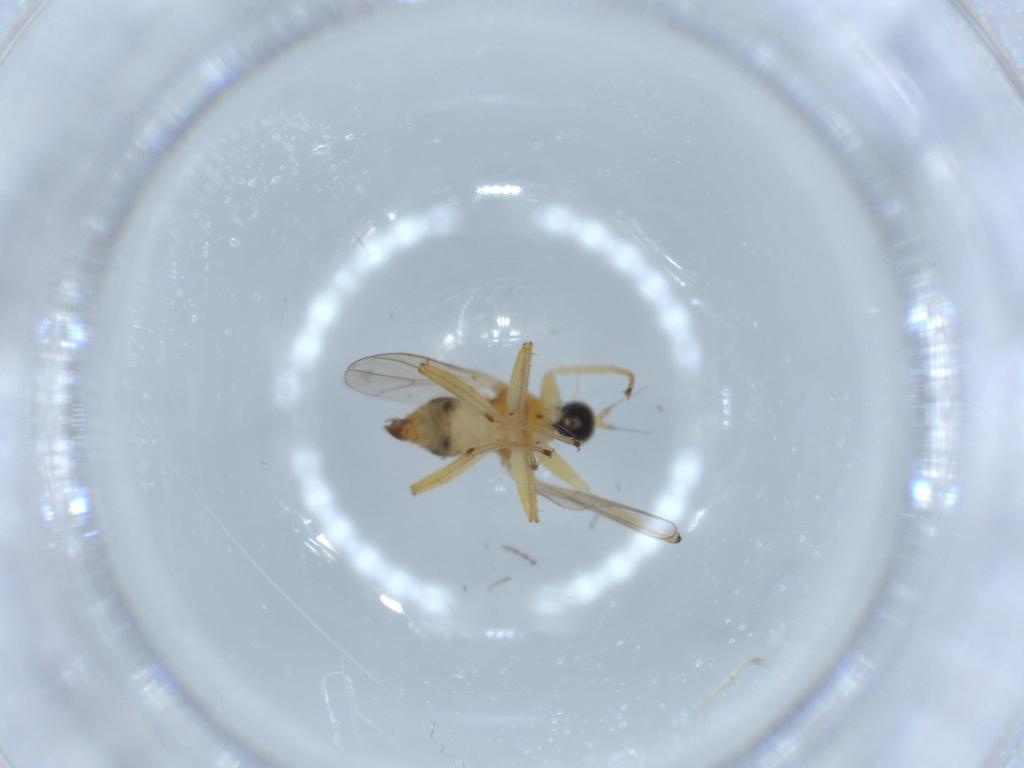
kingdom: Animalia
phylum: Arthropoda
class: Insecta
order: Diptera
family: Hybotidae
